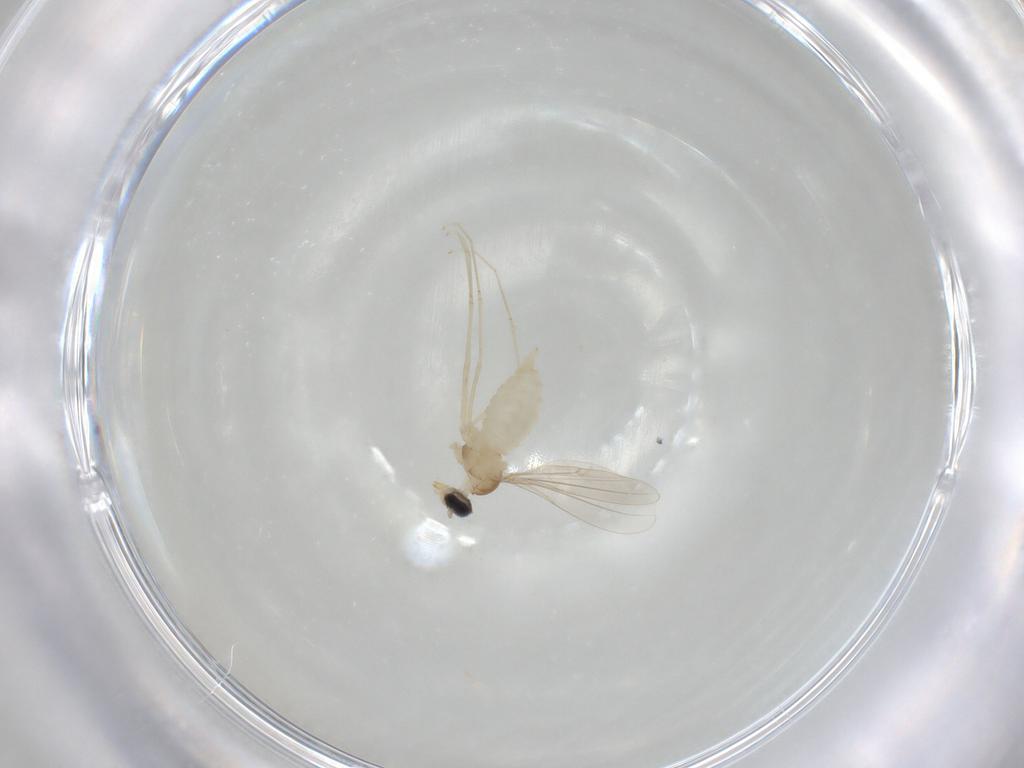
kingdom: Animalia
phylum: Arthropoda
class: Insecta
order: Diptera
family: Cecidomyiidae
